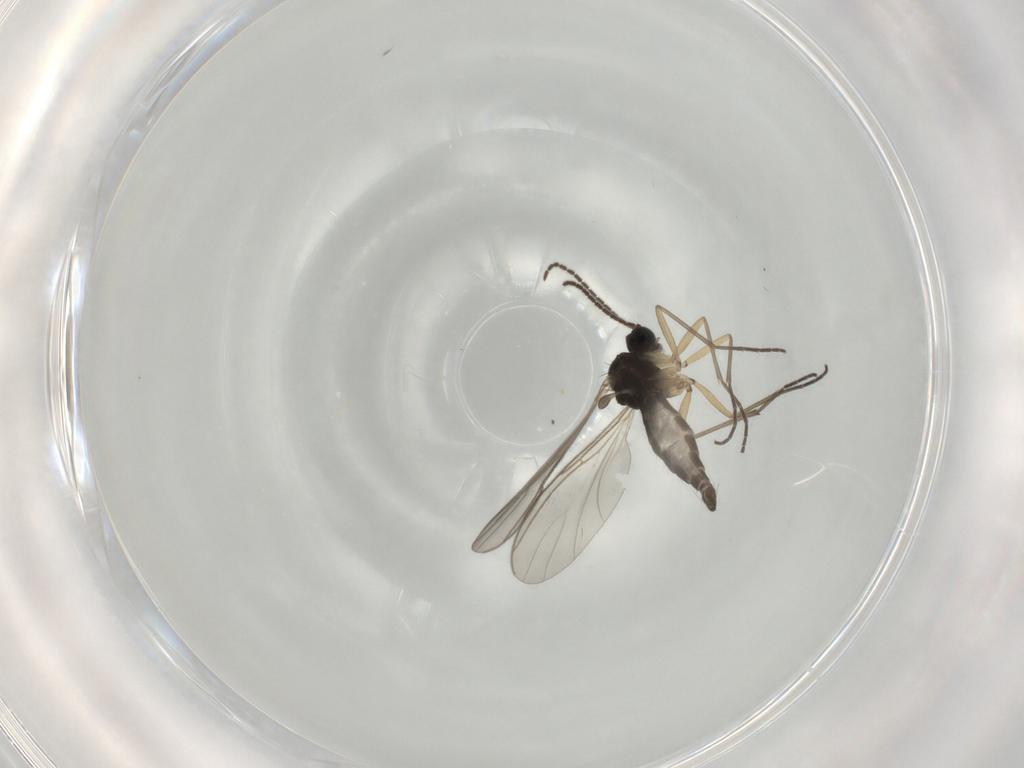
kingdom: Animalia
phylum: Arthropoda
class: Insecta
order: Diptera
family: Sciaridae
